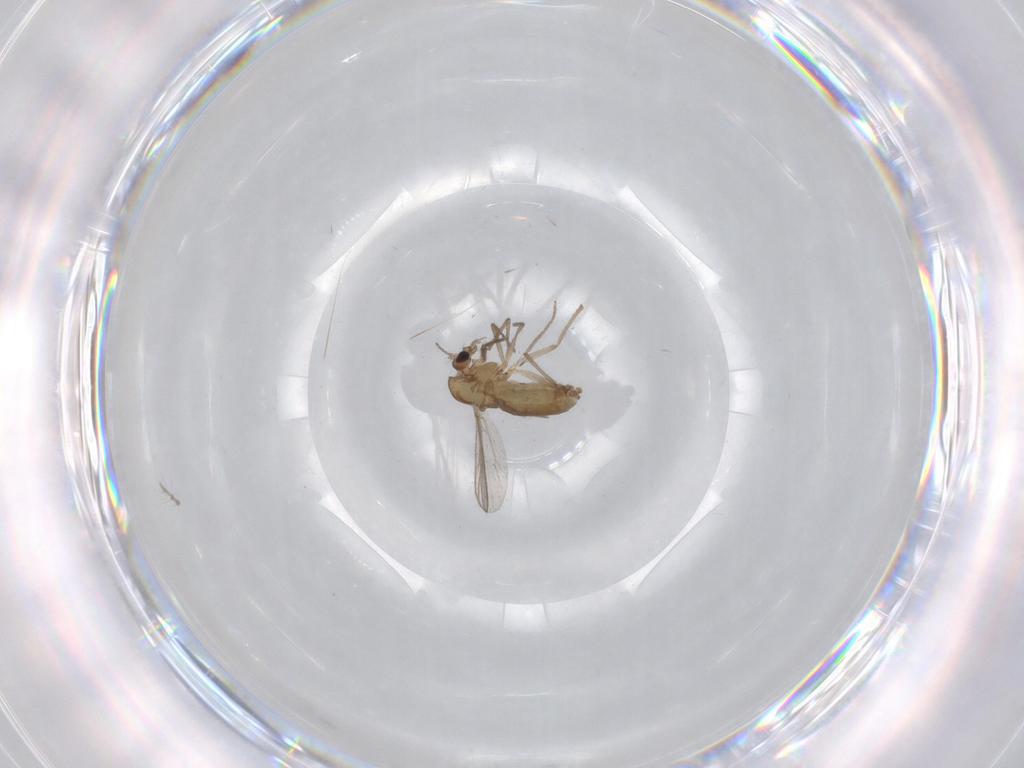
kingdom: Animalia
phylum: Arthropoda
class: Insecta
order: Diptera
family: Chironomidae
